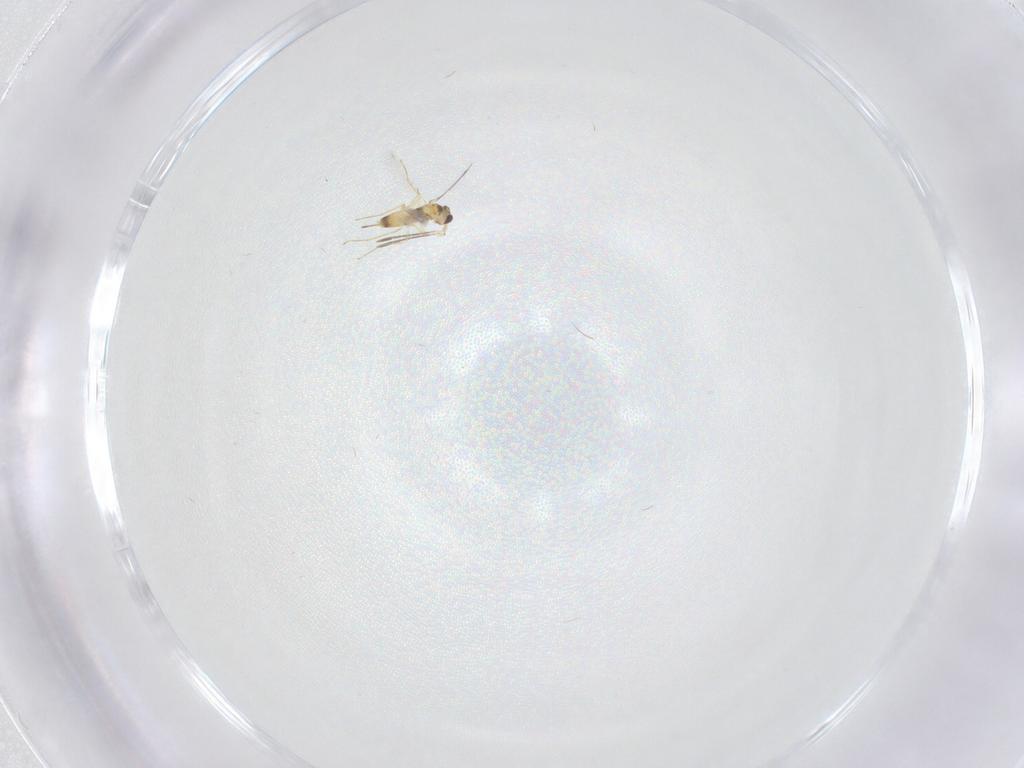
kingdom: Animalia
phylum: Arthropoda
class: Insecta
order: Hymenoptera
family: Mymaridae
